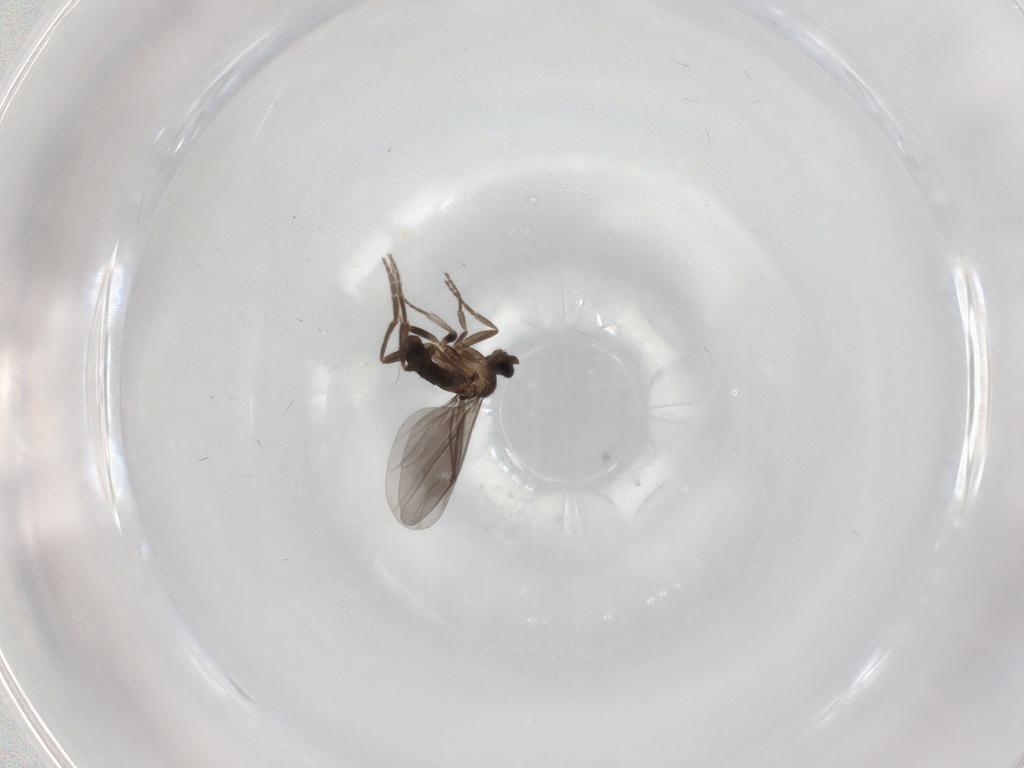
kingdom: Animalia
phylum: Arthropoda
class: Insecta
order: Diptera
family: Phoridae
